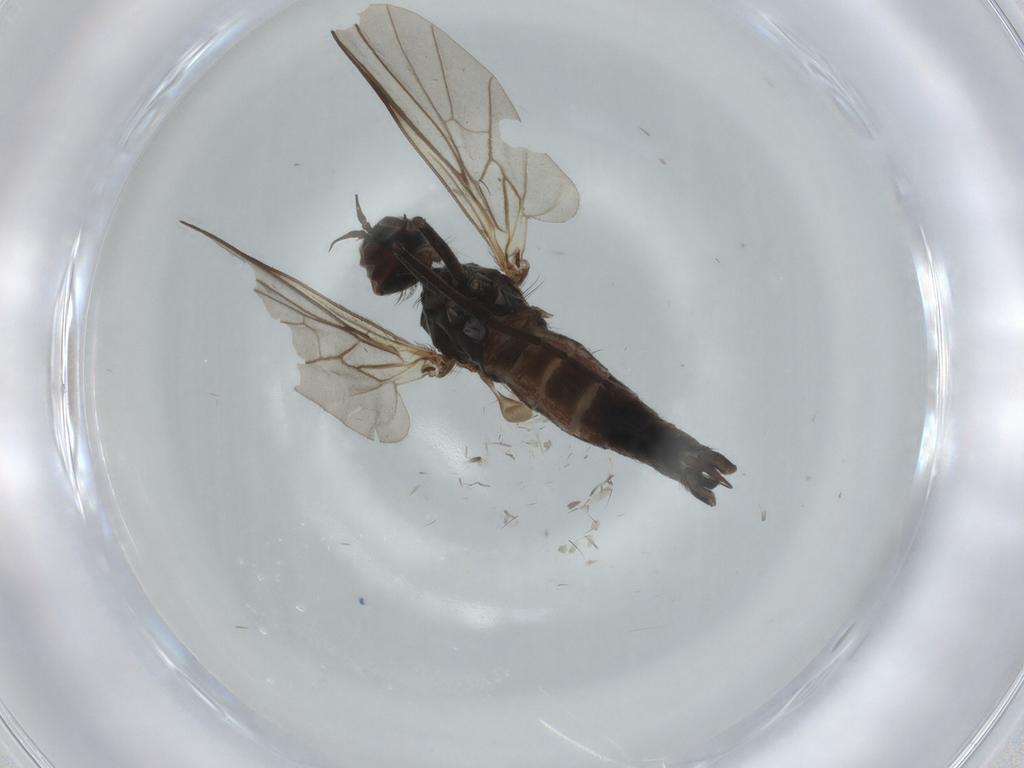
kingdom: Animalia
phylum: Arthropoda
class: Insecta
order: Diptera
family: Empididae
